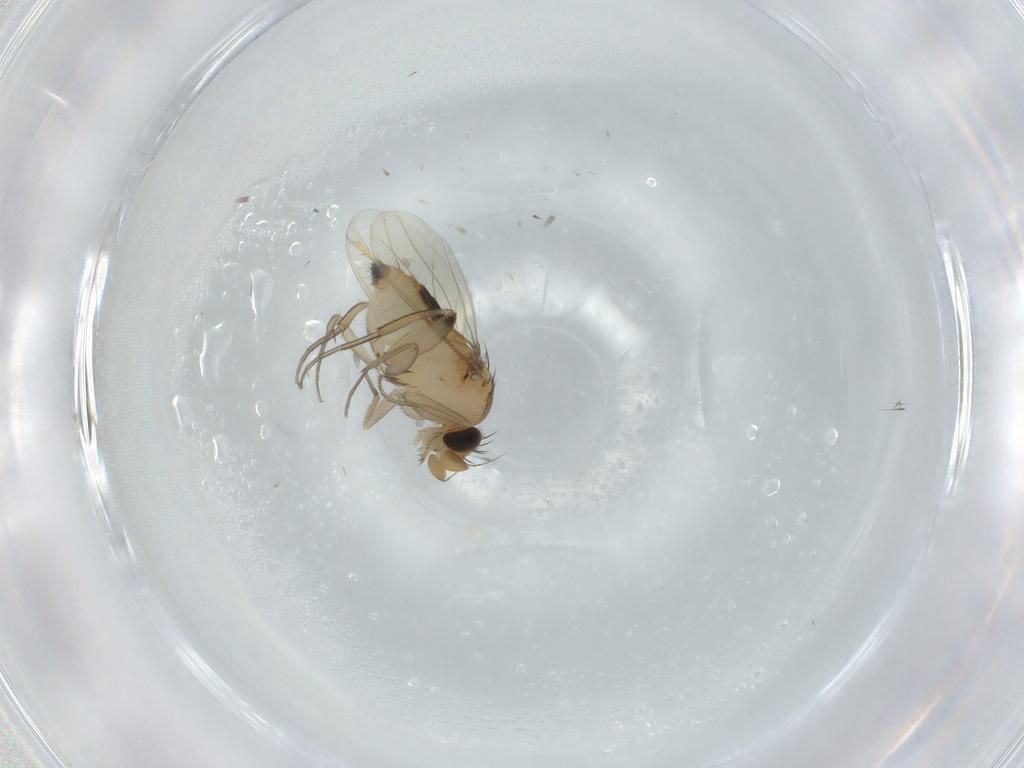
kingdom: Animalia
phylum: Arthropoda
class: Insecta
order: Diptera
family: Phoridae
